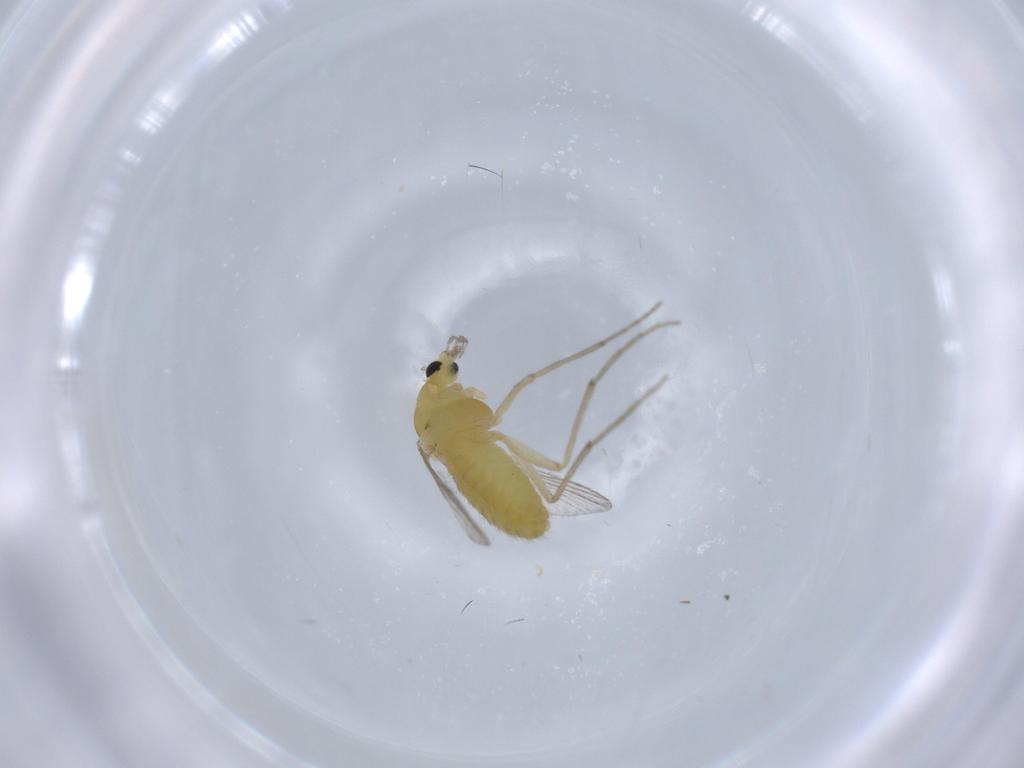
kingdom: Animalia
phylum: Arthropoda
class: Insecta
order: Diptera
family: Chironomidae
